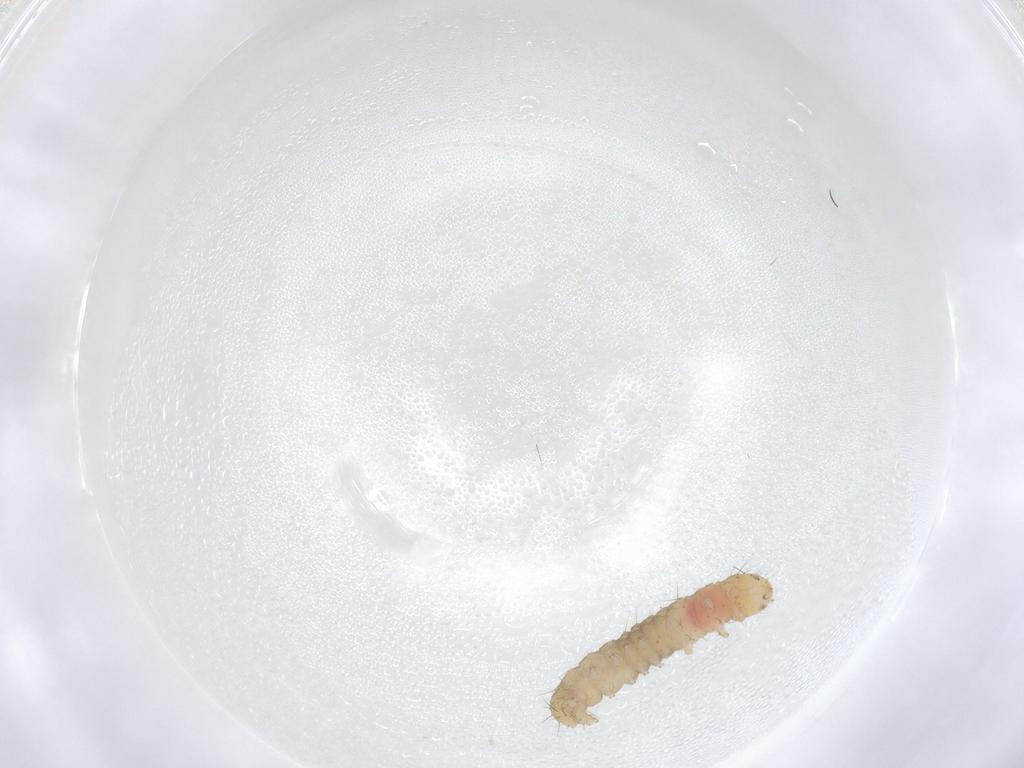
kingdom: Animalia
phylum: Arthropoda
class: Insecta
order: Lepidoptera
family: Gelechiidae
